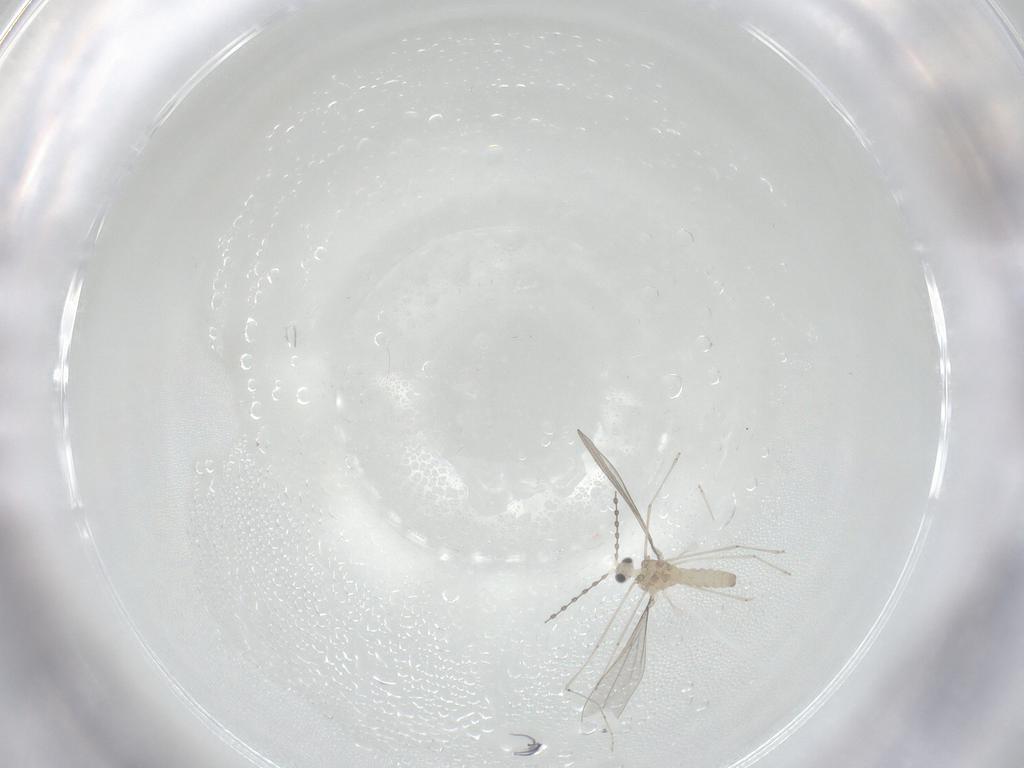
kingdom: Animalia
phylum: Arthropoda
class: Insecta
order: Diptera
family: Cecidomyiidae
